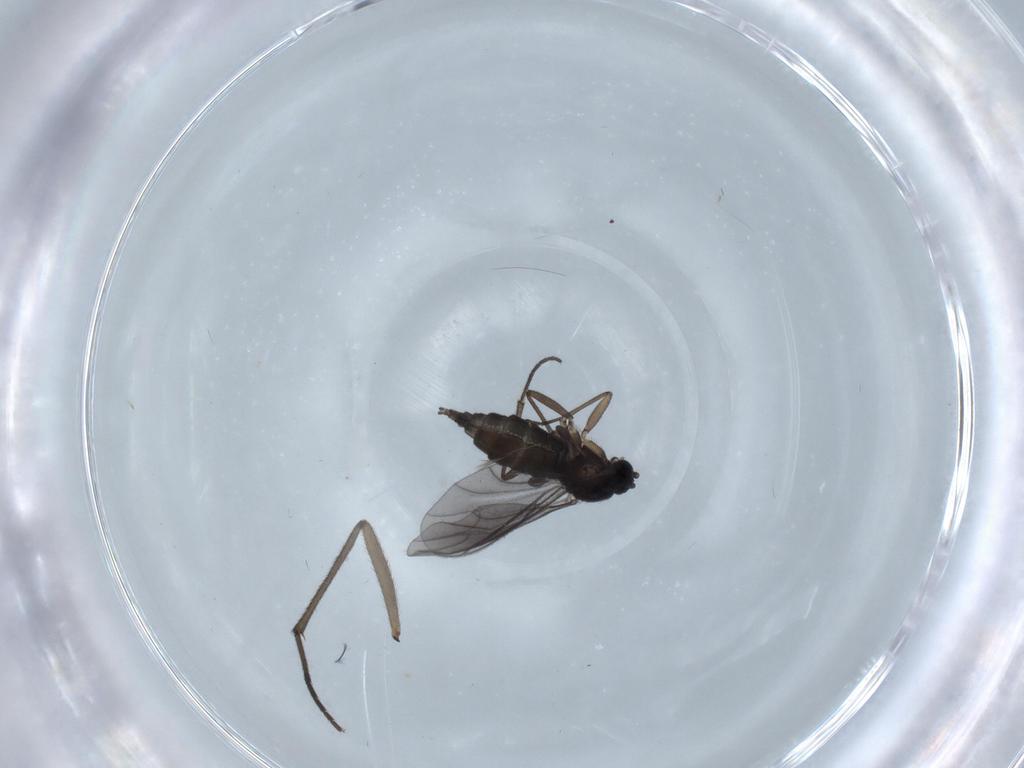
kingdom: Animalia
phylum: Arthropoda
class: Insecta
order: Diptera
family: Sciaridae
